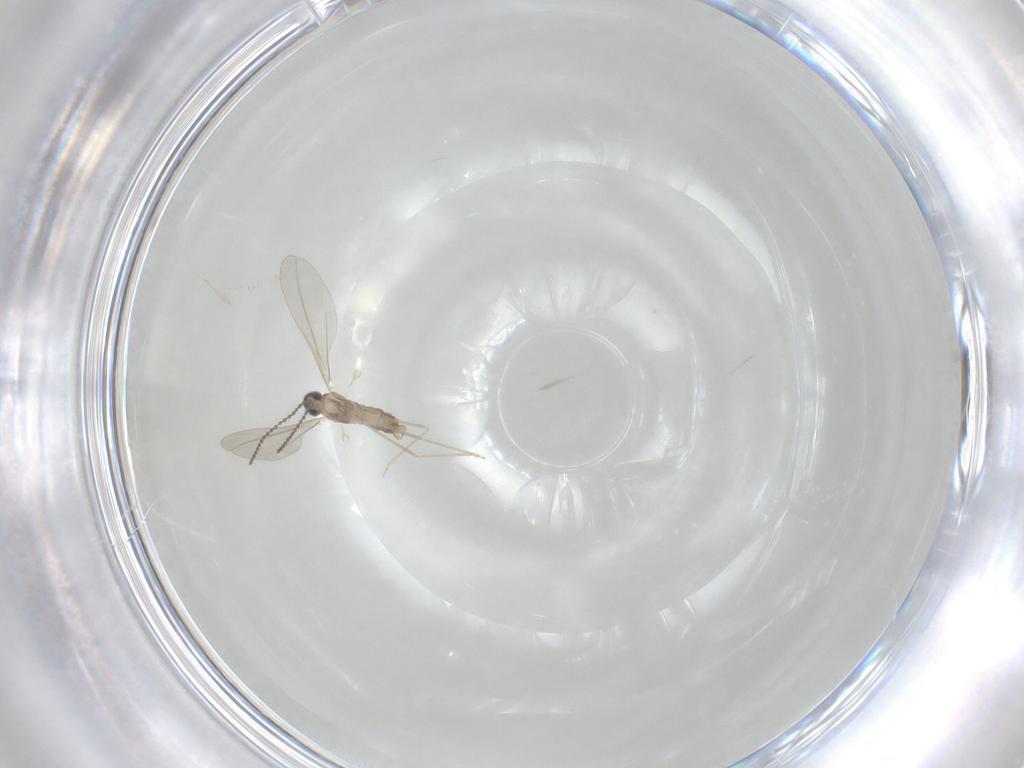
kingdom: Animalia
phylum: Arthropoda
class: Insecta
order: Diptera
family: Cecidomyiidae
